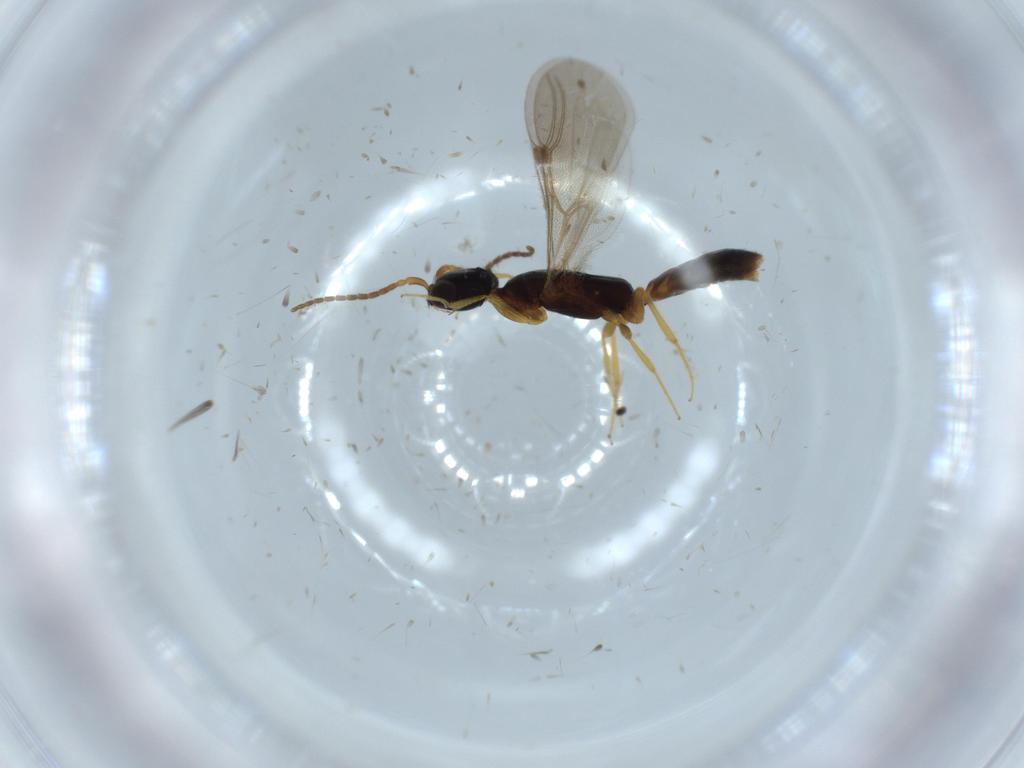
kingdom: Animalia
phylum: Arthropoda
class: Insecta
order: Hymenoptera
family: Bethylidae
